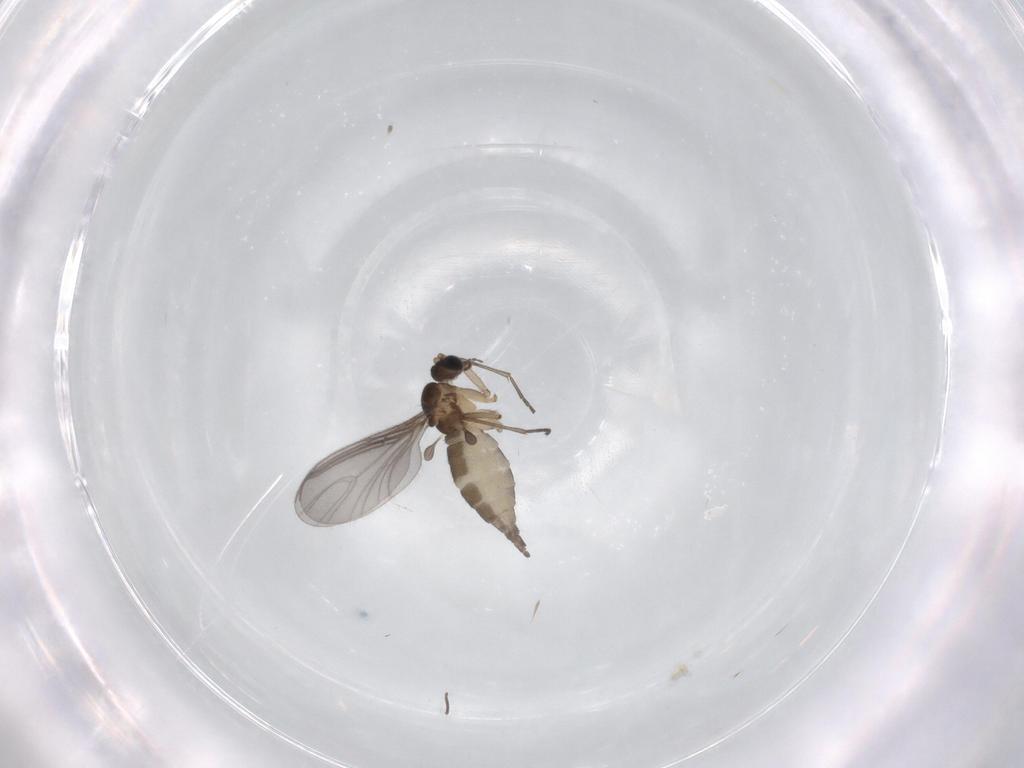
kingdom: Animalia
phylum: Arthropoda
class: Insecta
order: Diptera
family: Sciaridae
